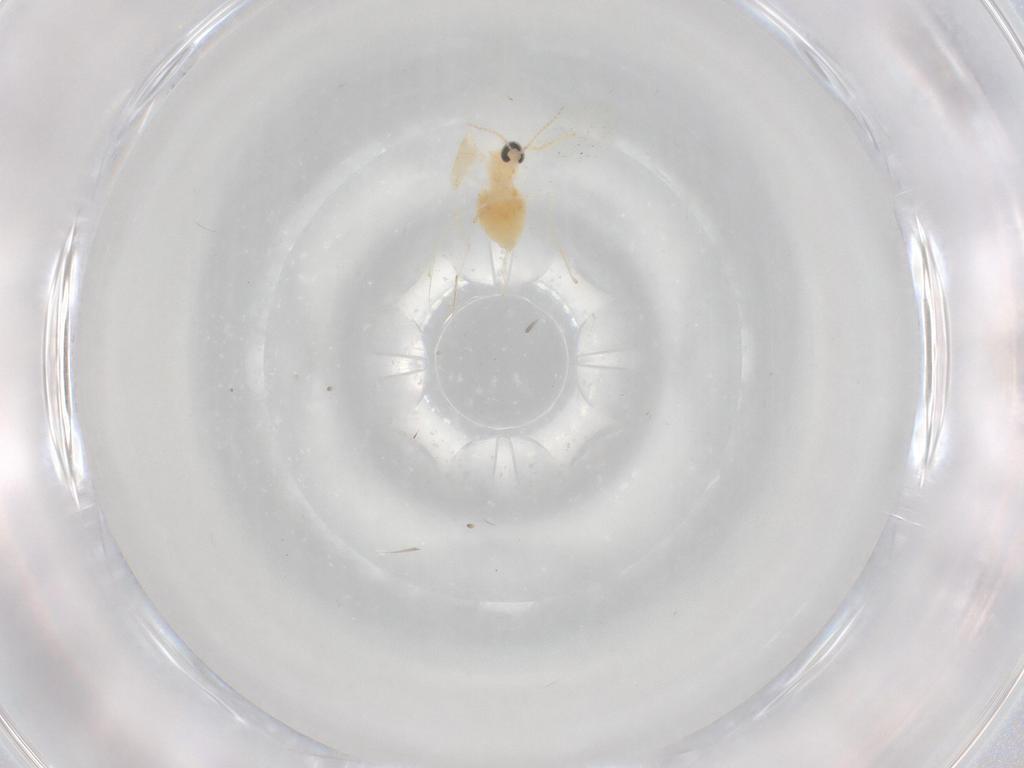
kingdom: Animalia
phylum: Arthropoda
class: Insecta
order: Diptera
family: Cecidomyiidae
